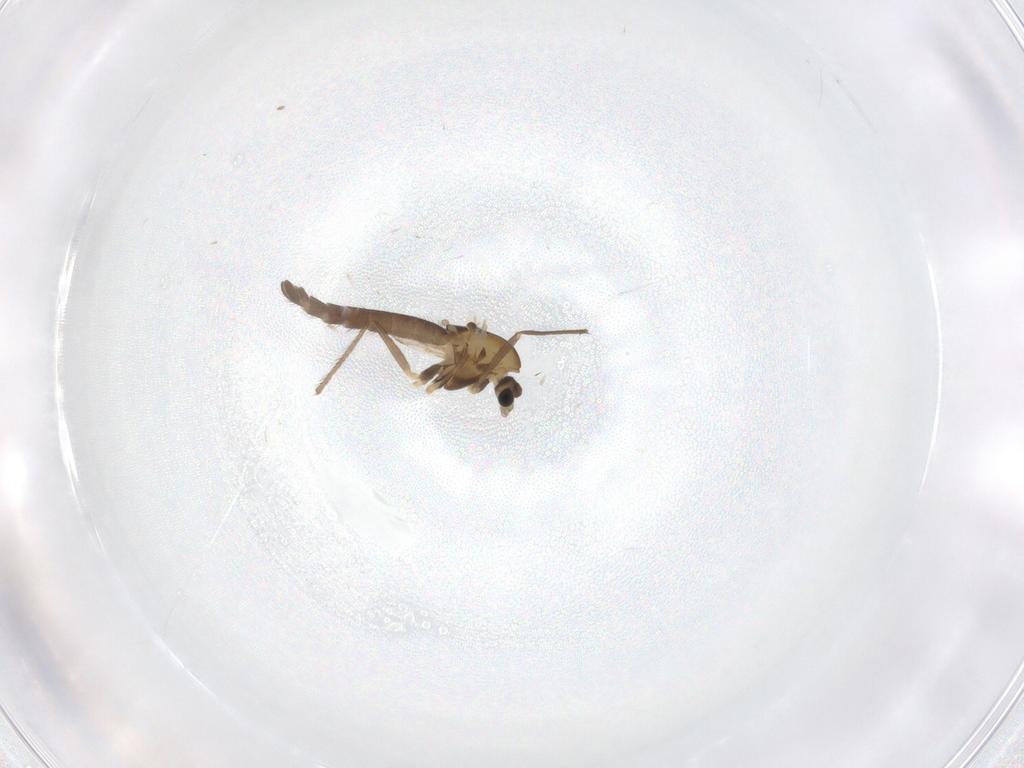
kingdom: Animalia
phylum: Arthropoda
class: Insecta
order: Diptera
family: Chironomidae
